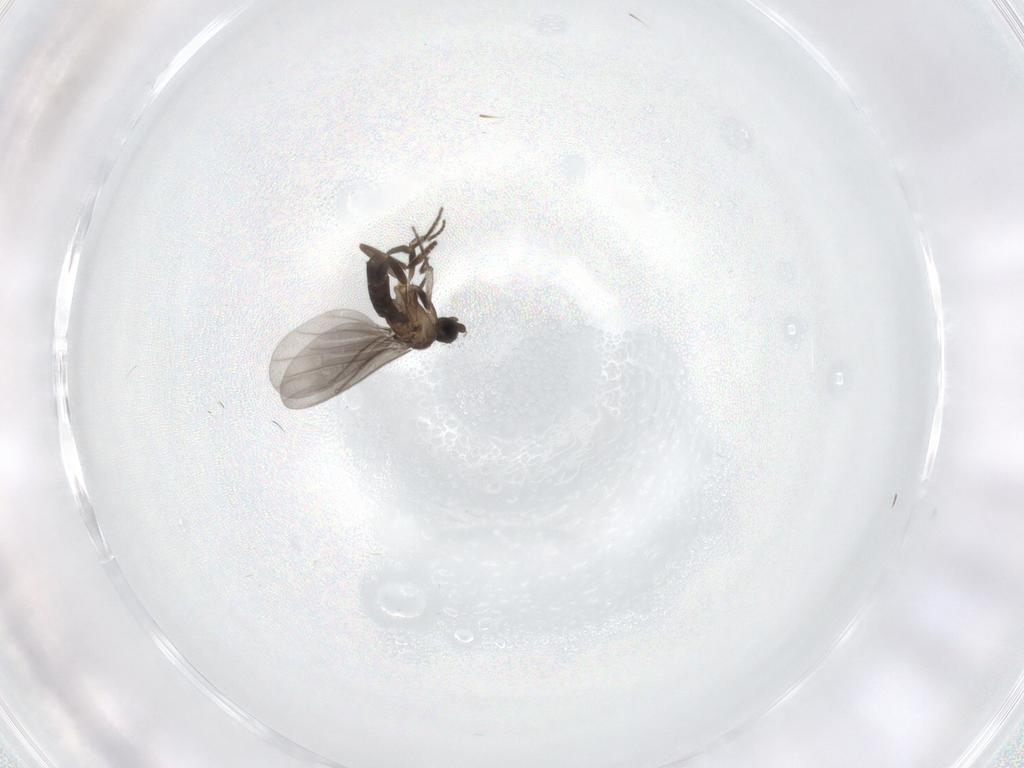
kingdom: Animalia
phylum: Arthropoda
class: Insecta
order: Diptera
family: Phoridae
